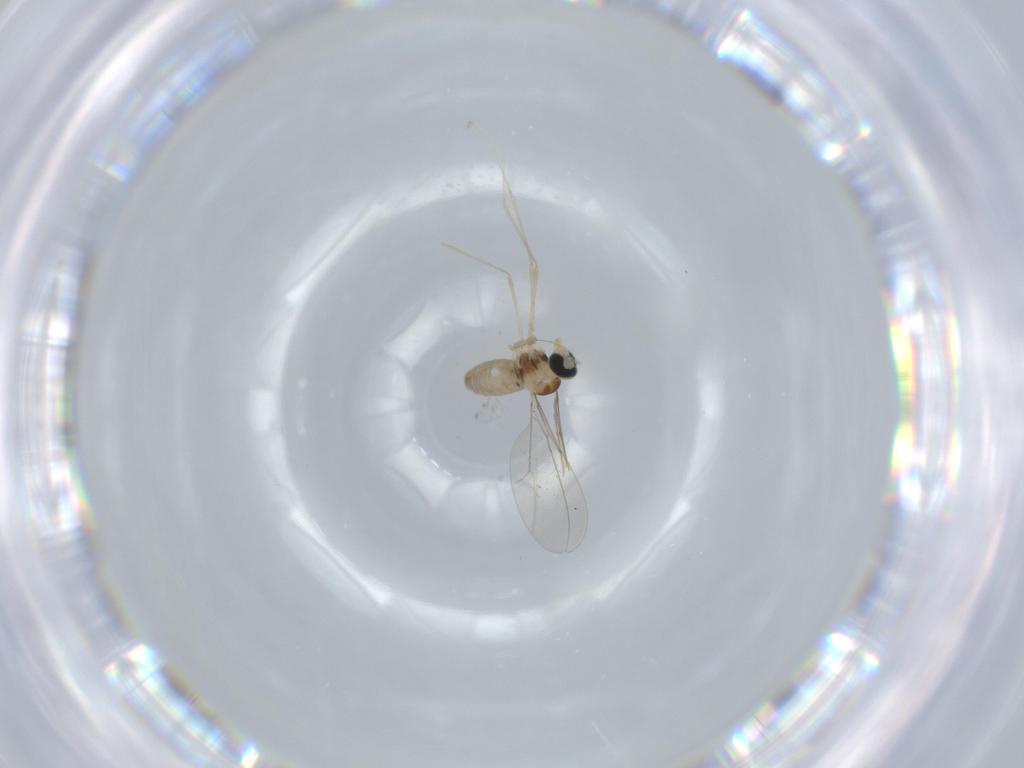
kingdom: Animalia
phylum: Arthropoda
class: Insecta
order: Diptera
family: Cecidomyiidae
